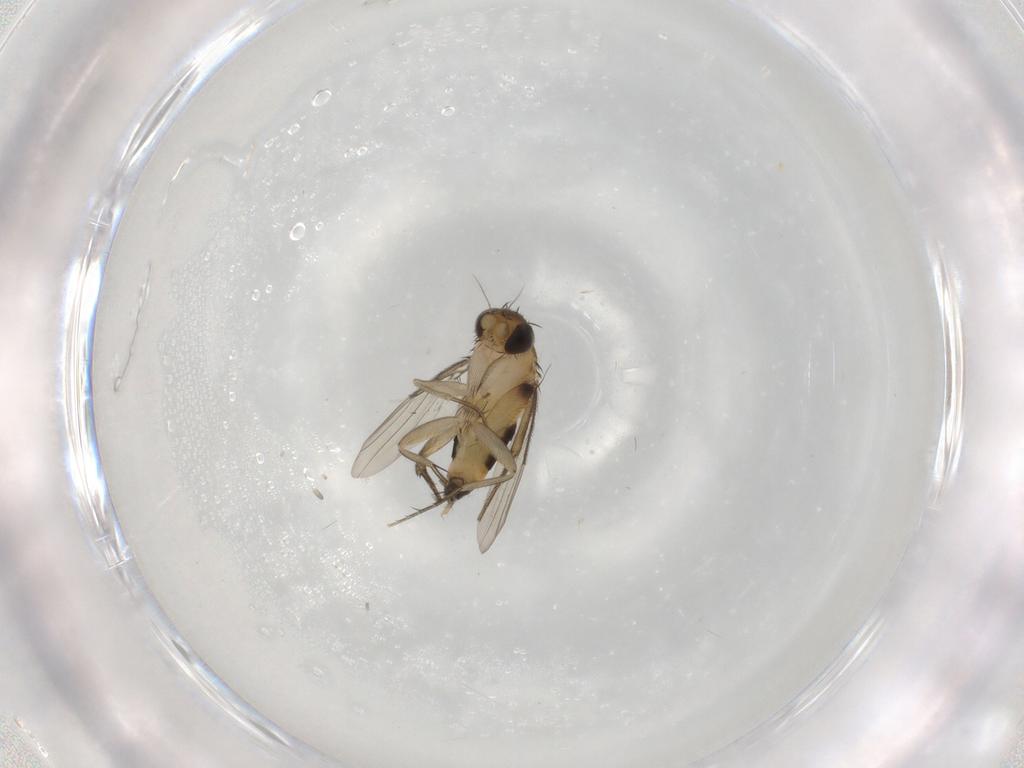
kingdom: Animalia
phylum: Arthropoda
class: Insecta
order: Diptera
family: Phoridae
